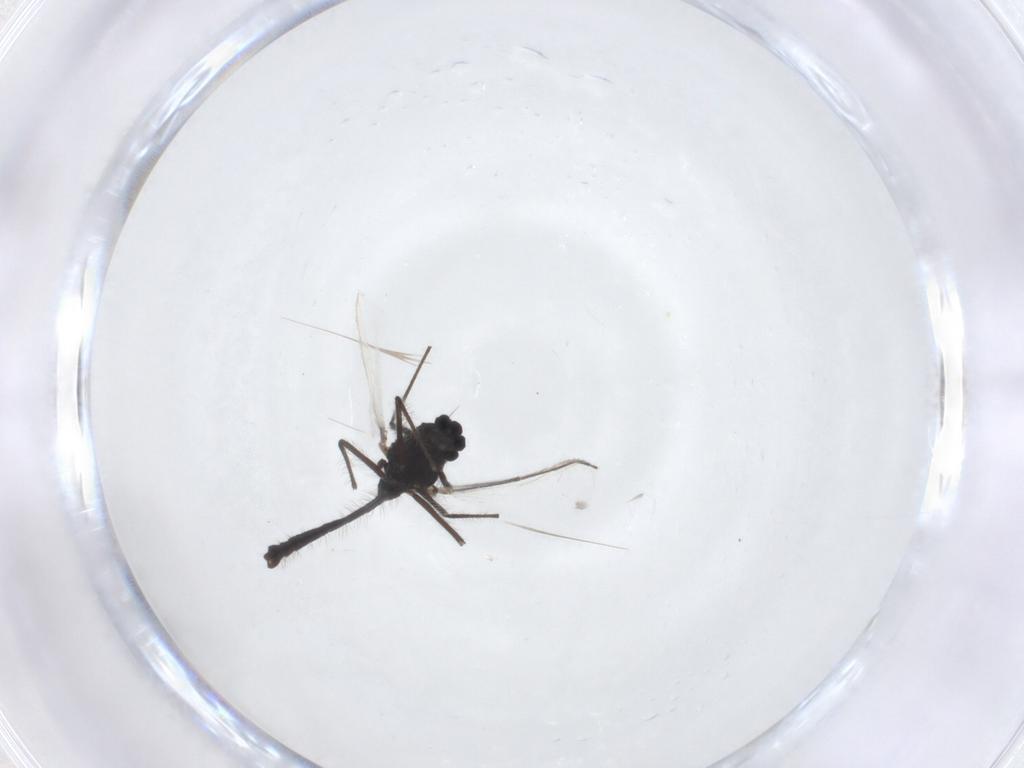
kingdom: Animalia
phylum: Arthropoda
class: Insecta
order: Diptera
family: Chironomidae
